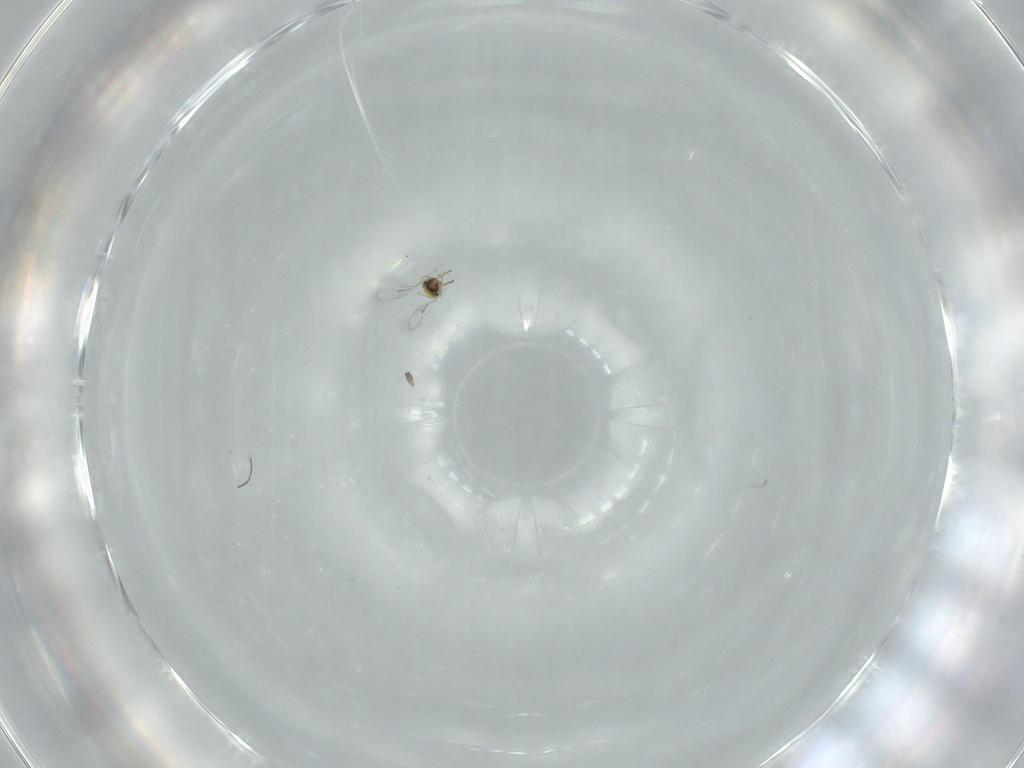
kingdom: Animalia
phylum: Arthropoda
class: Insecta
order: Hymenoptera
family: Aphelinidae
